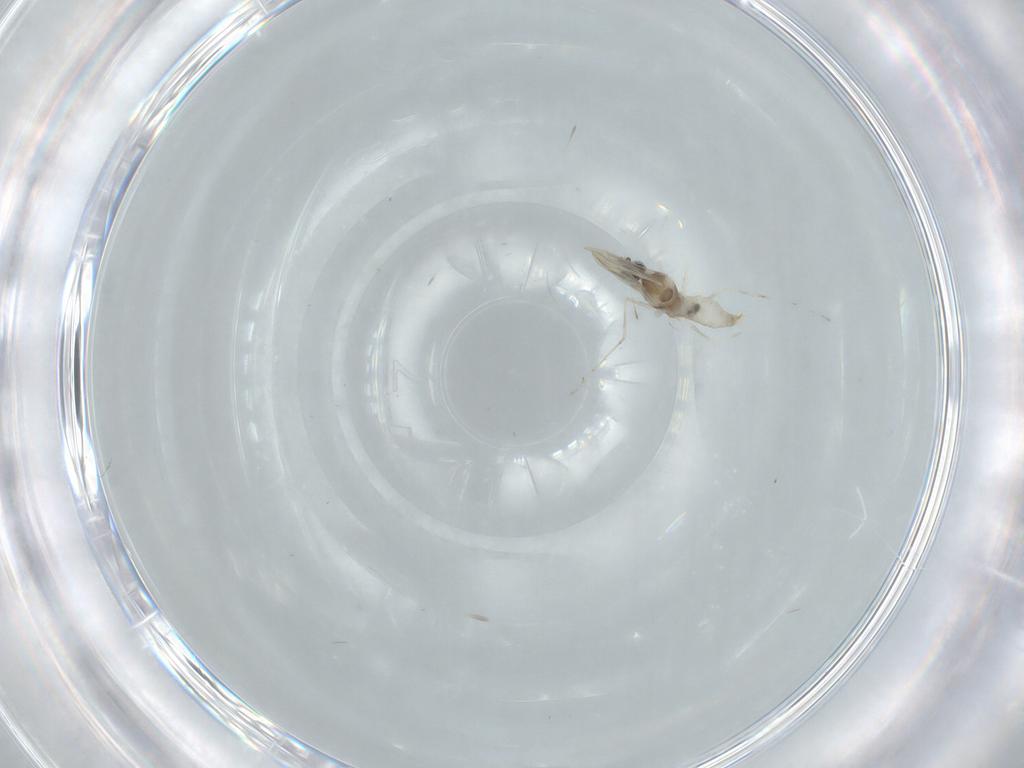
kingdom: Animalia
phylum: Arthropoda
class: Insecta
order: Diptera
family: Cecidomyiidae
